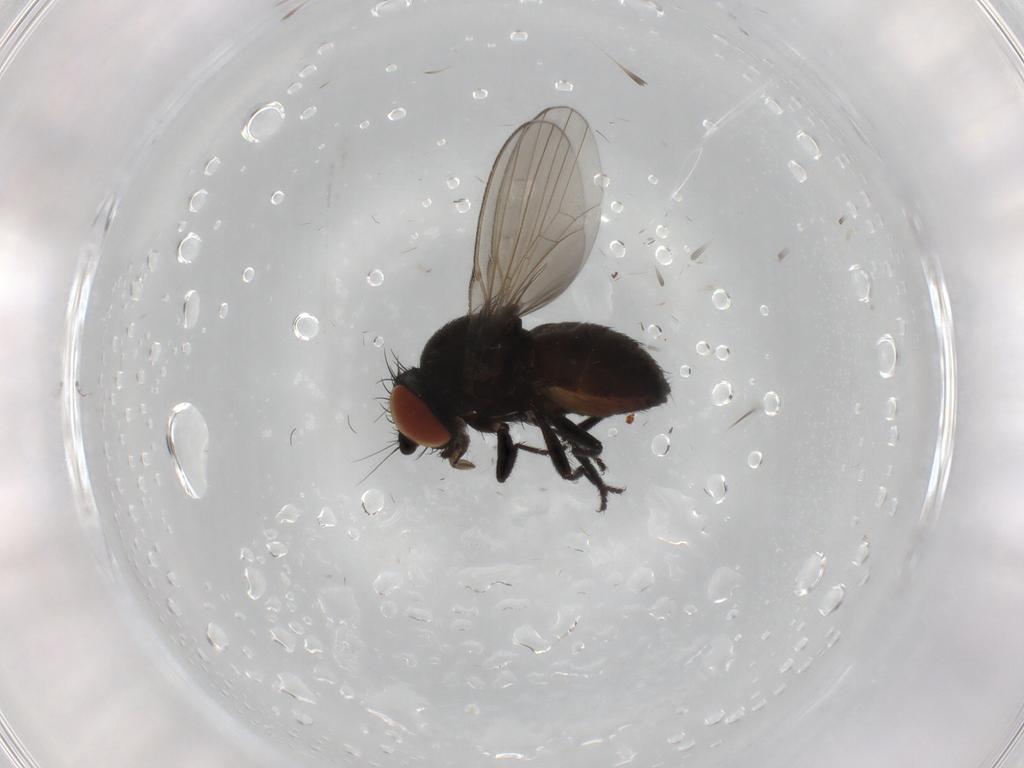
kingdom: Animalia
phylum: Arthropoda
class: Insecta
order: Diptera
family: Milichiidae
